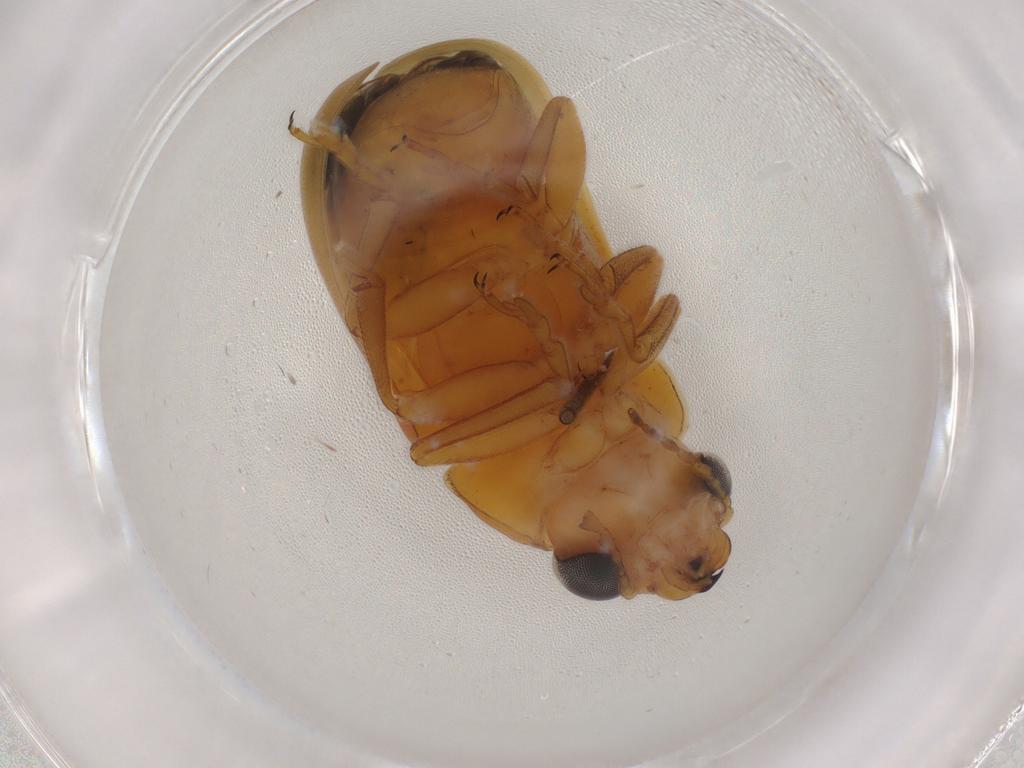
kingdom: Animalia
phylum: Arthropoda
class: Insecta
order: Coleoptera
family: Chrysomelidae
